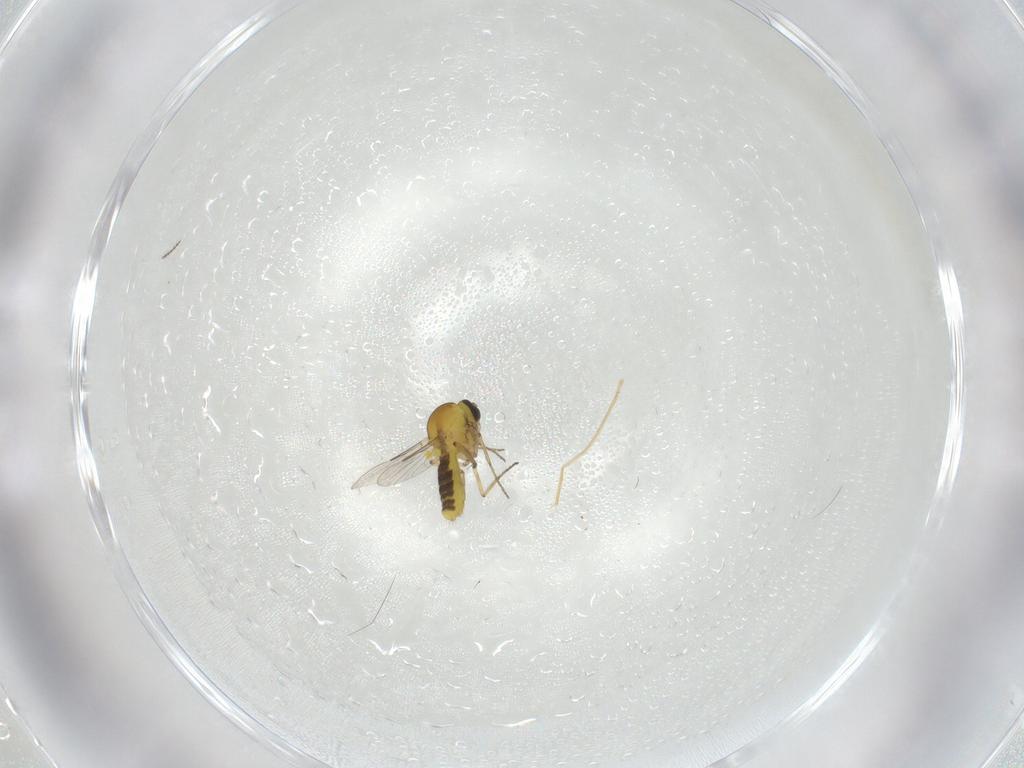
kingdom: Animalia
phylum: Arthropoda
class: Insecta
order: Diptera
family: Ceratopogonidae
